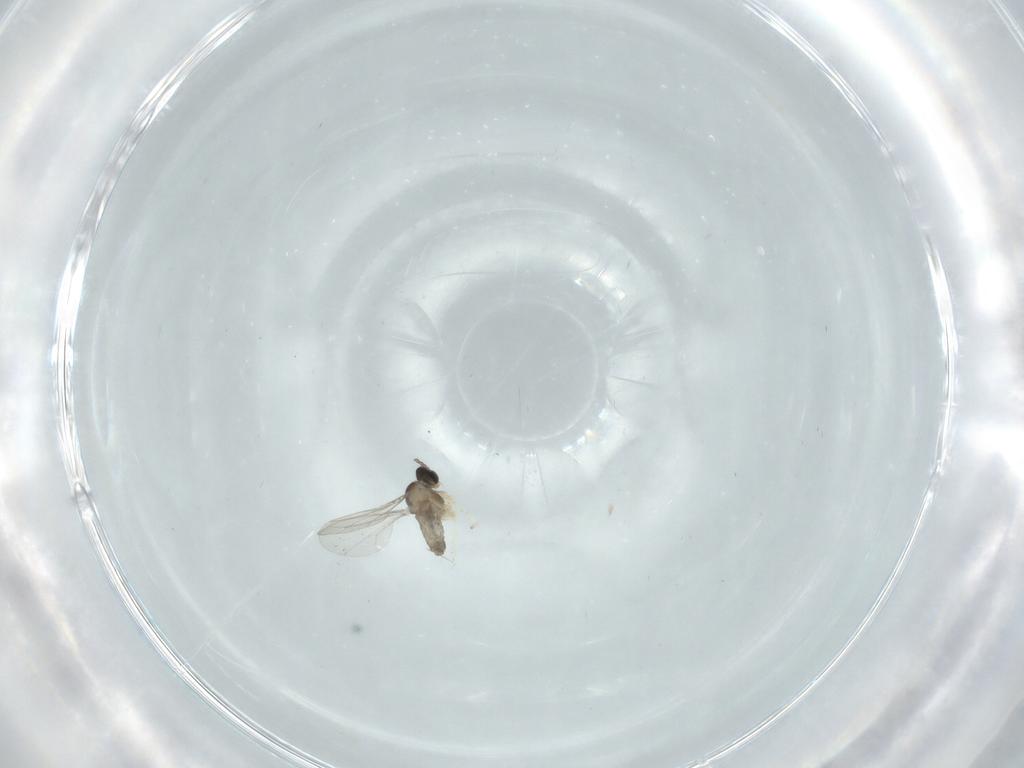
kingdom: Animalia
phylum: Arthropoda
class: Insecta
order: Diptera
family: Cecidomyiidae
